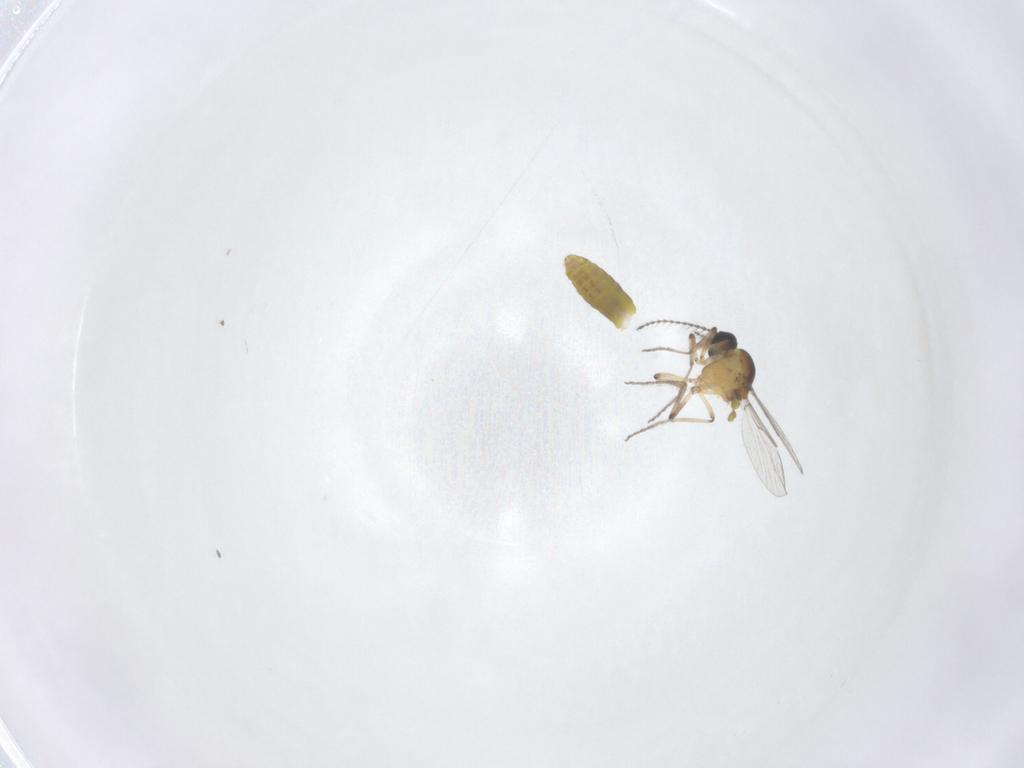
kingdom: Animalia
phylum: Arthropoda
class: Insecta
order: Diptera
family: Ceratopogonidae
